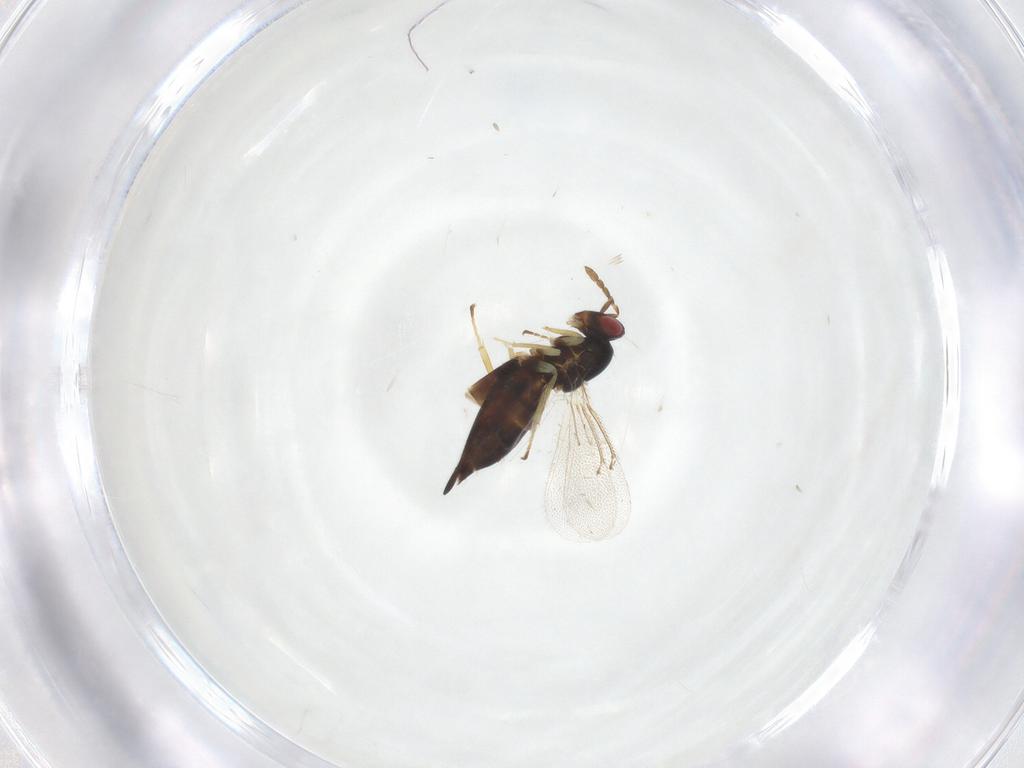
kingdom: Animalia
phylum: Arthropoda
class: Insecta
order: Hymenoptera
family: Eulophidae
